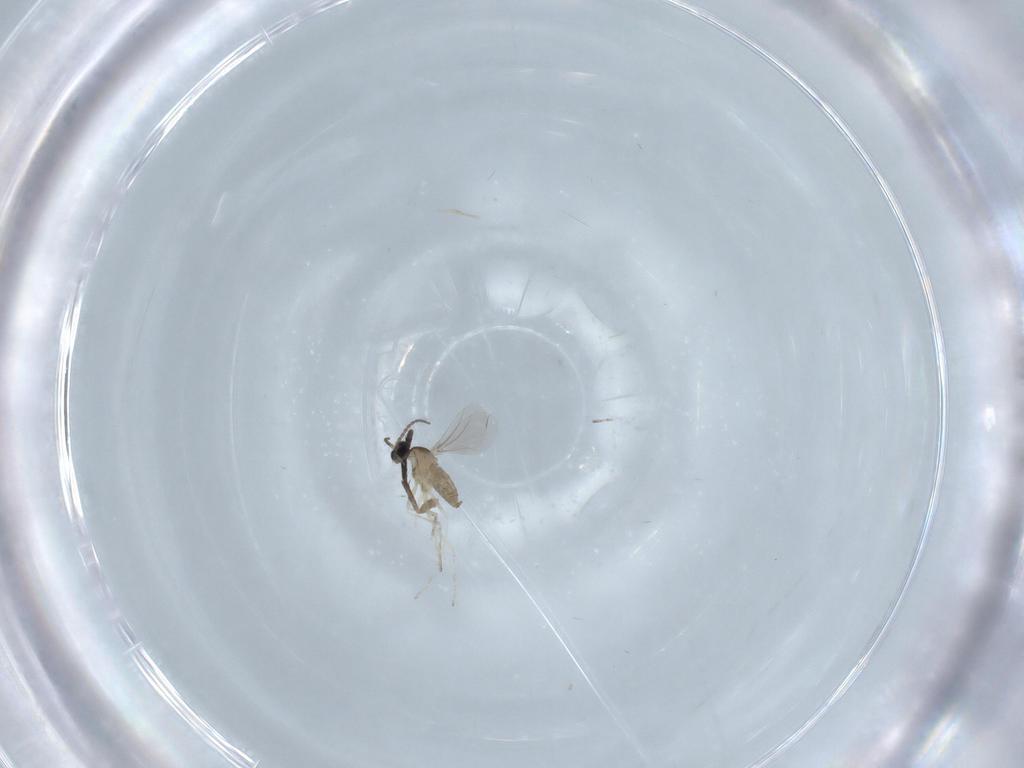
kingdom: Animalia
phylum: Arthropoda
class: Insecta
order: Diptera
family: Cecidomyiidae
